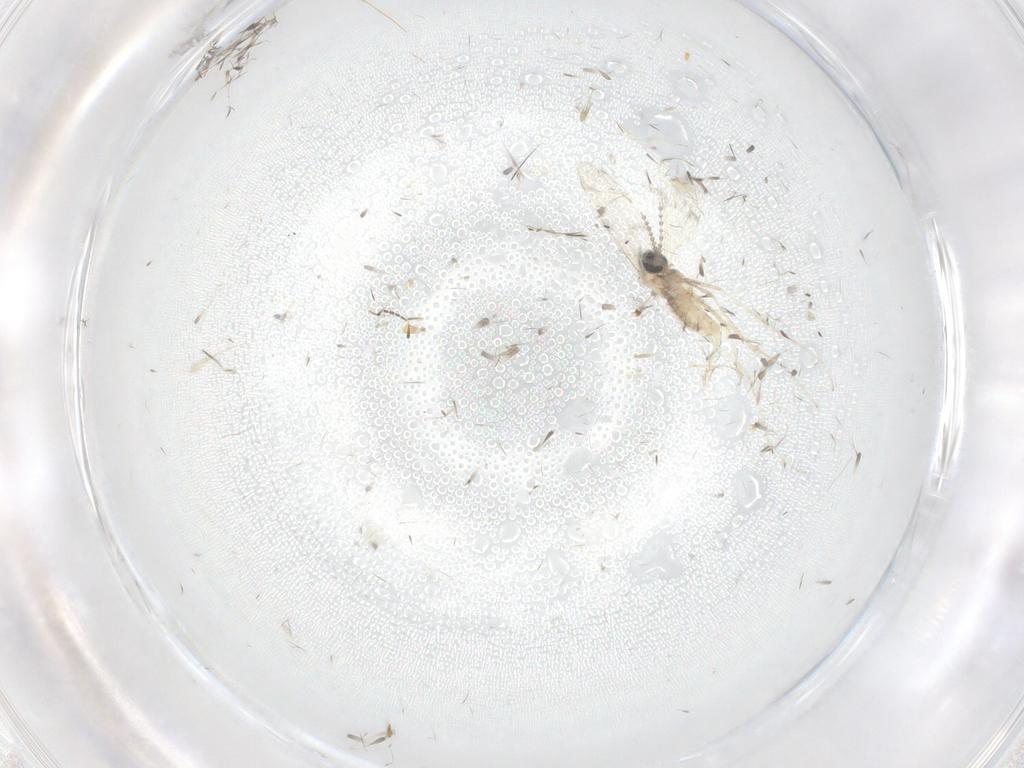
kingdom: Animalia
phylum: Arthropoda
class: Insecta
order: Diptera
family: Cecidomyiidae
